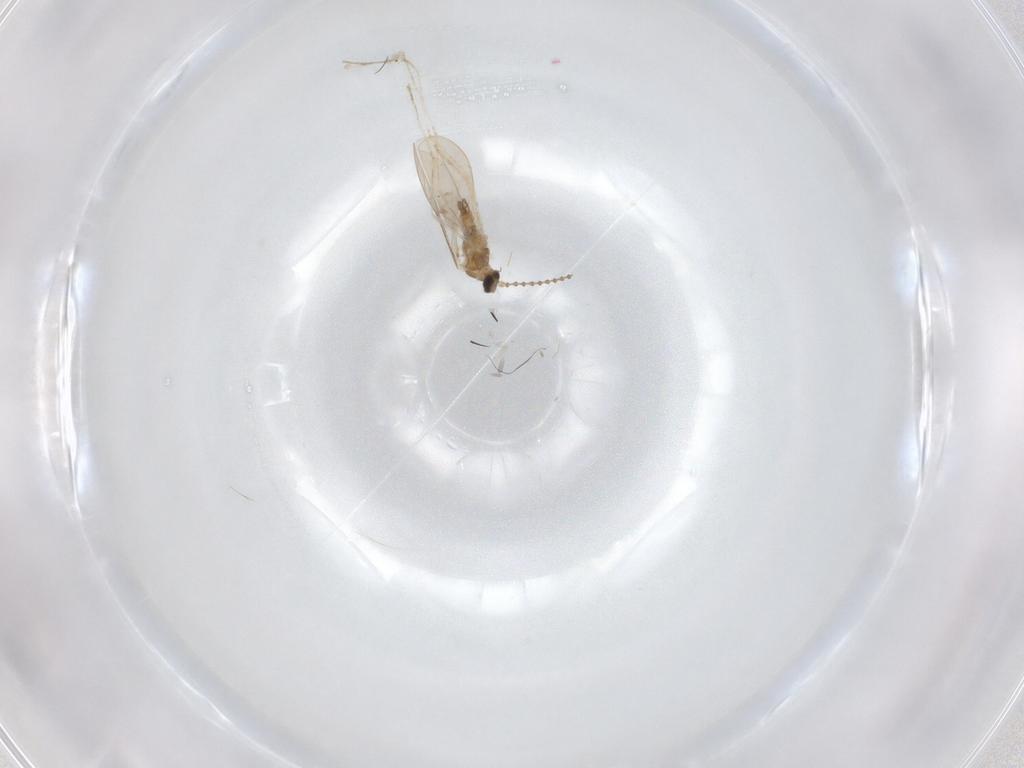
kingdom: Animalia
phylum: Arthropoda
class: Insecta
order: Diptera
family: Cecidomyiidae
